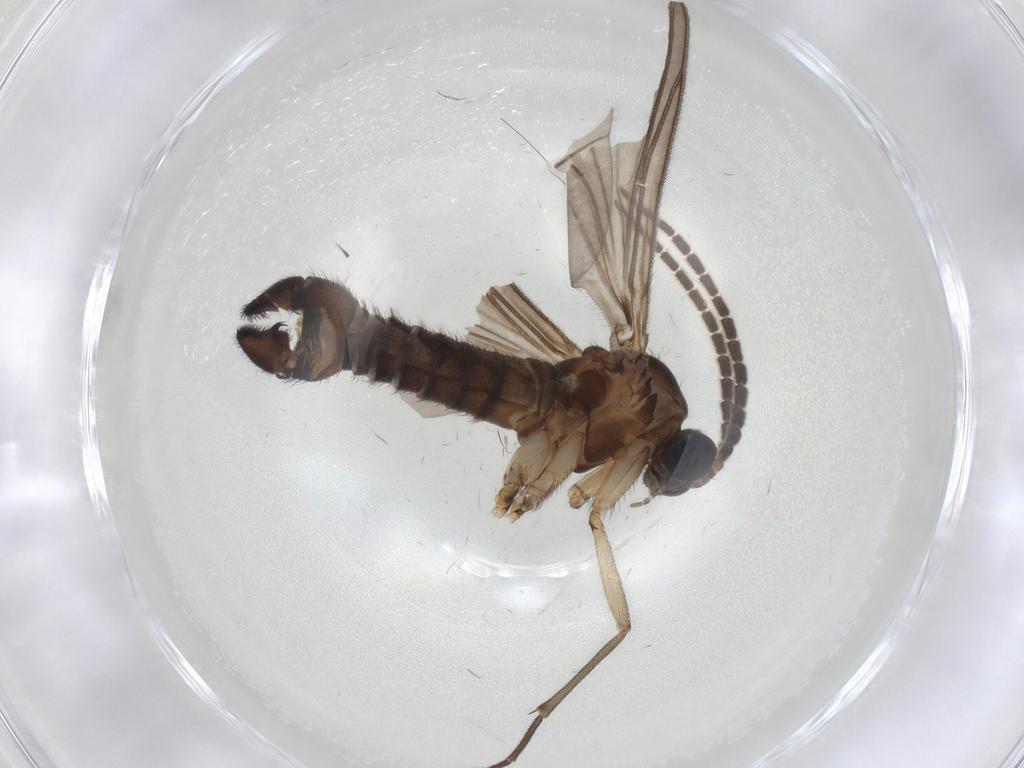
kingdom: Animalia
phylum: Arthropoda
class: Insecta
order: Diptera
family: Sciaridae
